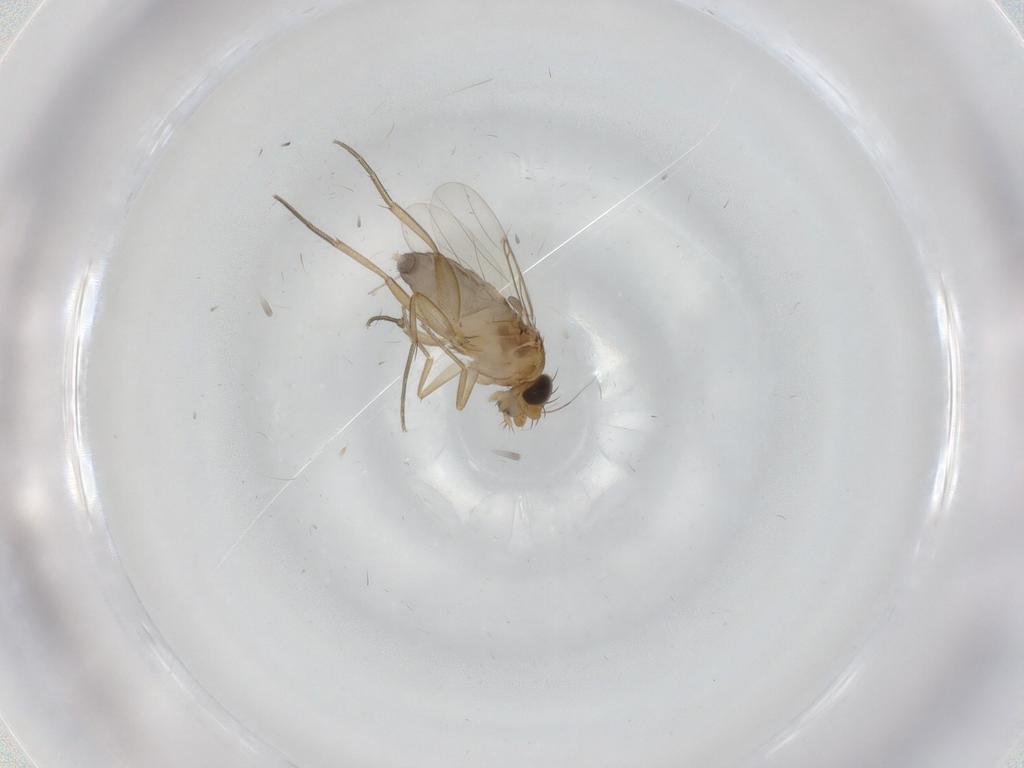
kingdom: Animalia
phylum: Arthropoda
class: Insecta
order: Diptera
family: Phoridae
